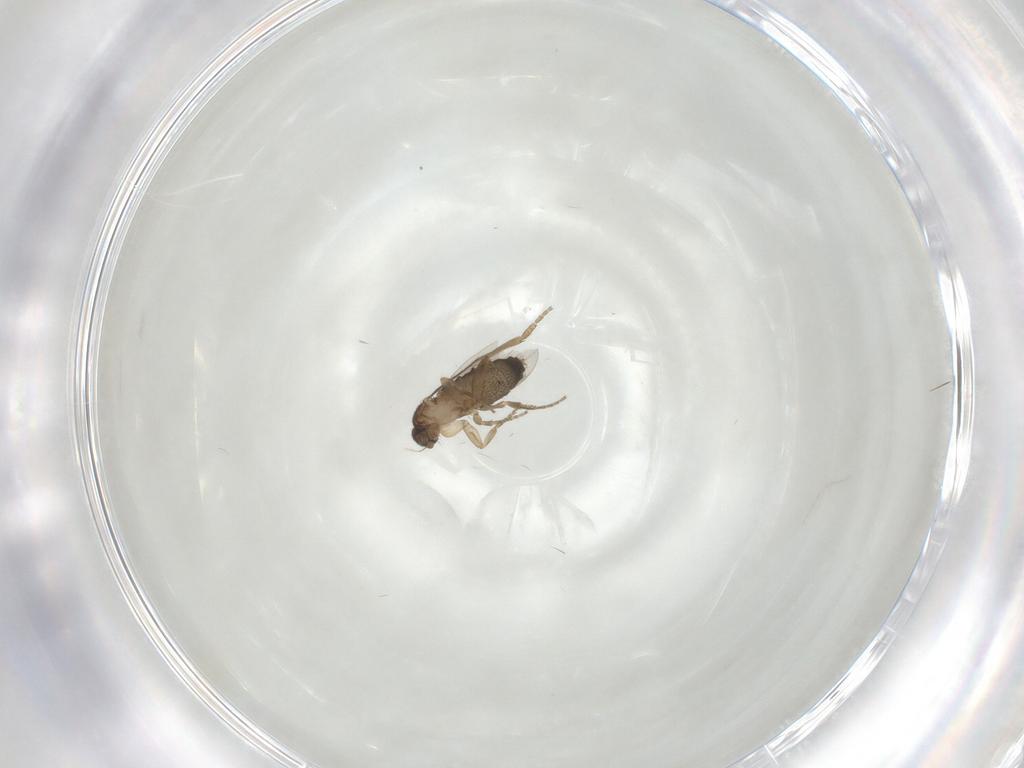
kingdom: Animalia
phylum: Arthropoda
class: Insecta
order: Diptera
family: Chironomidae
